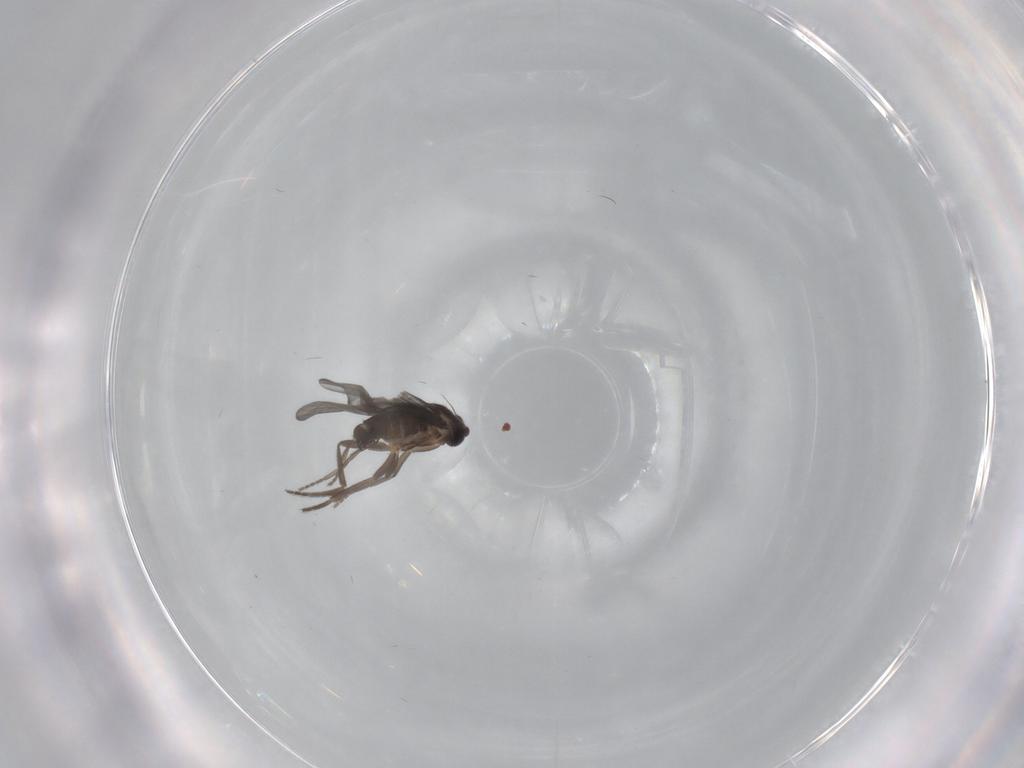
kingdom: Animalia
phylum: Arthropoda
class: Insecta
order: Diptera
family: Phoridae
